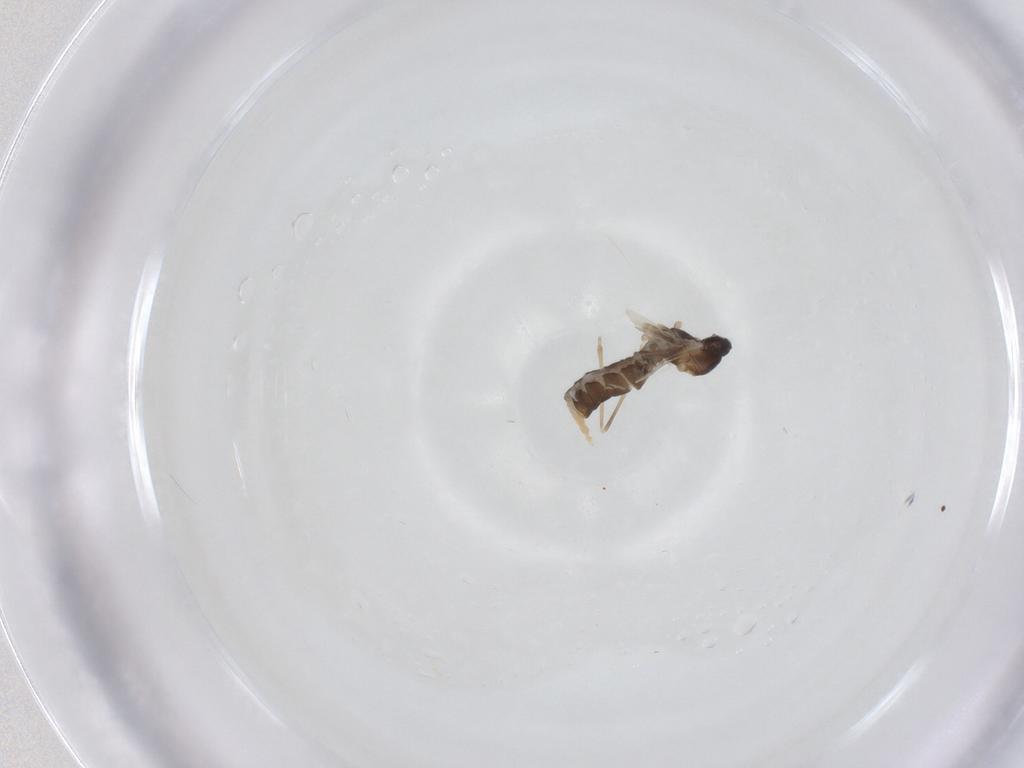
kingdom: Animalia
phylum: Arthropoda
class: Insecta
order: Diptera
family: Cecidomyiidae
